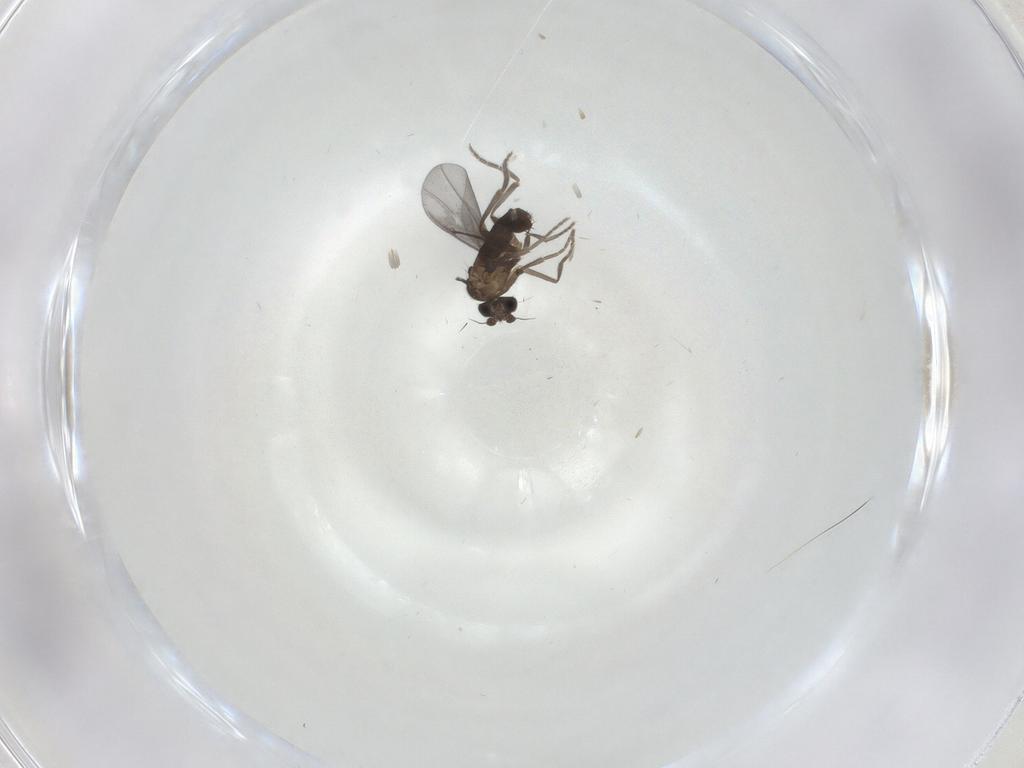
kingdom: Animalia
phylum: Arthropoda
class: Insecta
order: Diptera
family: Phoridae
